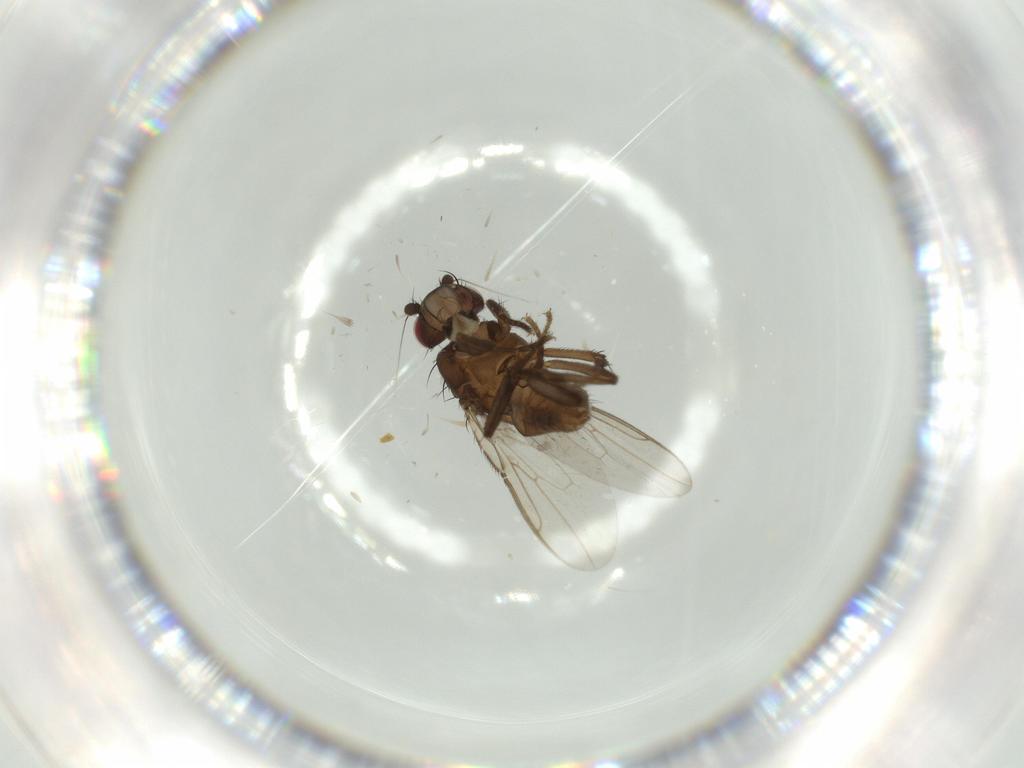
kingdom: Animalia
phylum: Arthropoda
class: Insecta
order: Diptera
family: Sphaeroceridae
